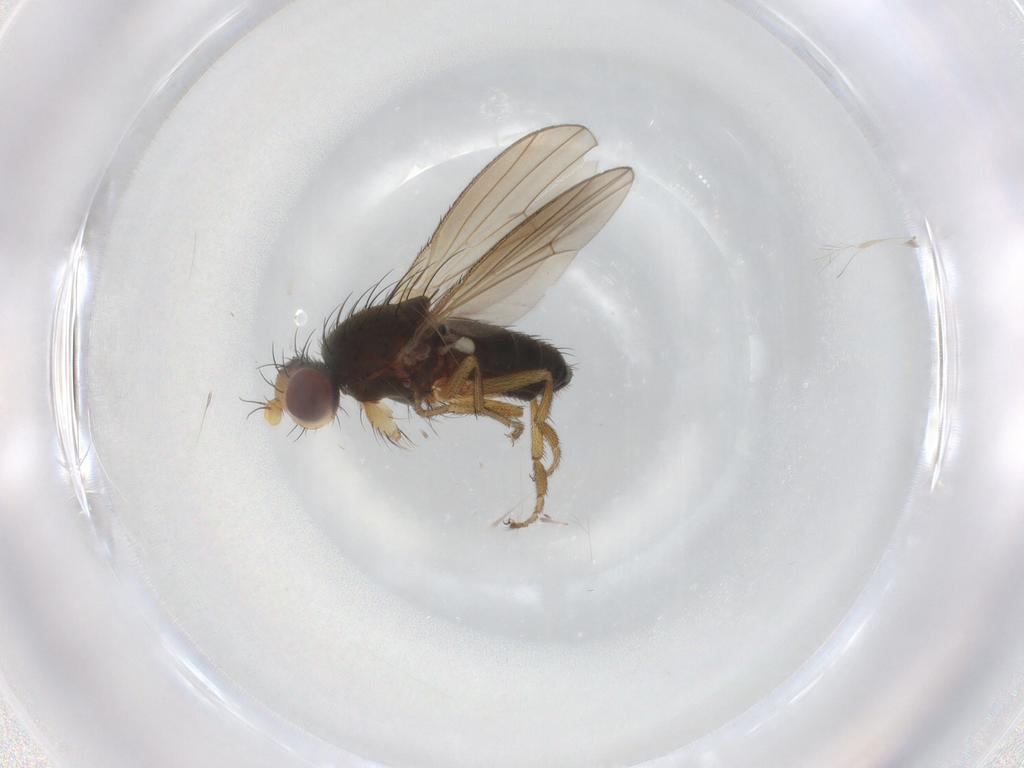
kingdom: Animalia
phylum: Arthropoda
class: Insecta
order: Diptera
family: Heleomyzidae
